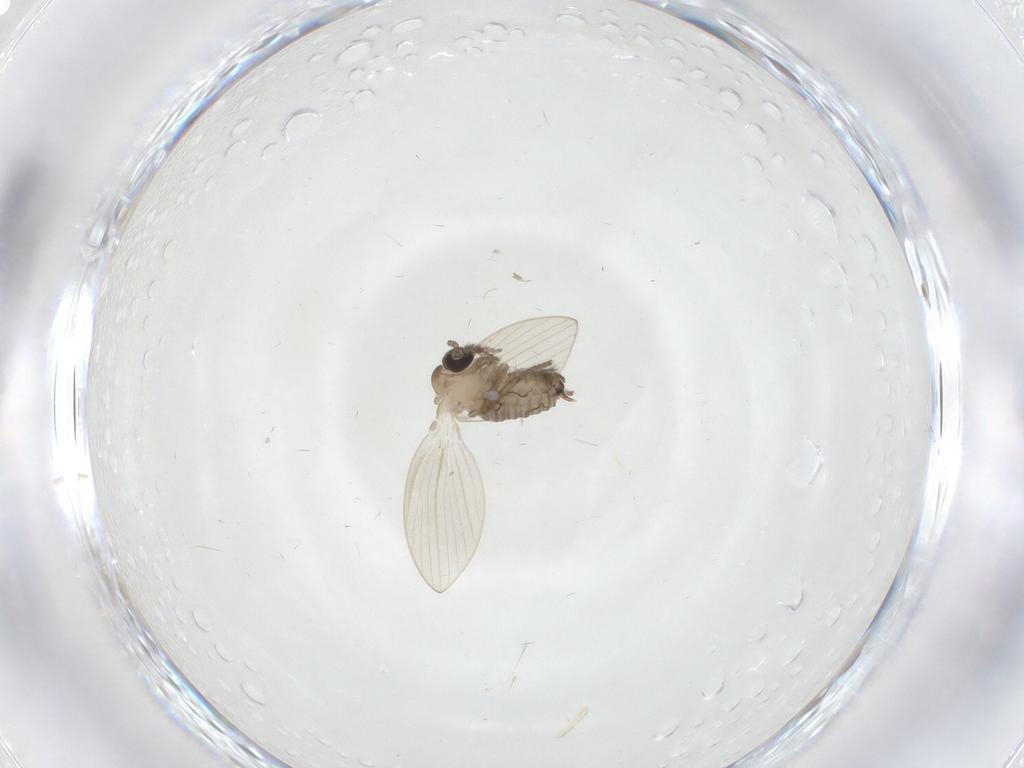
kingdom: Animalia
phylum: Arthropoda
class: Insecta
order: Diptera
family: Psychodidae
